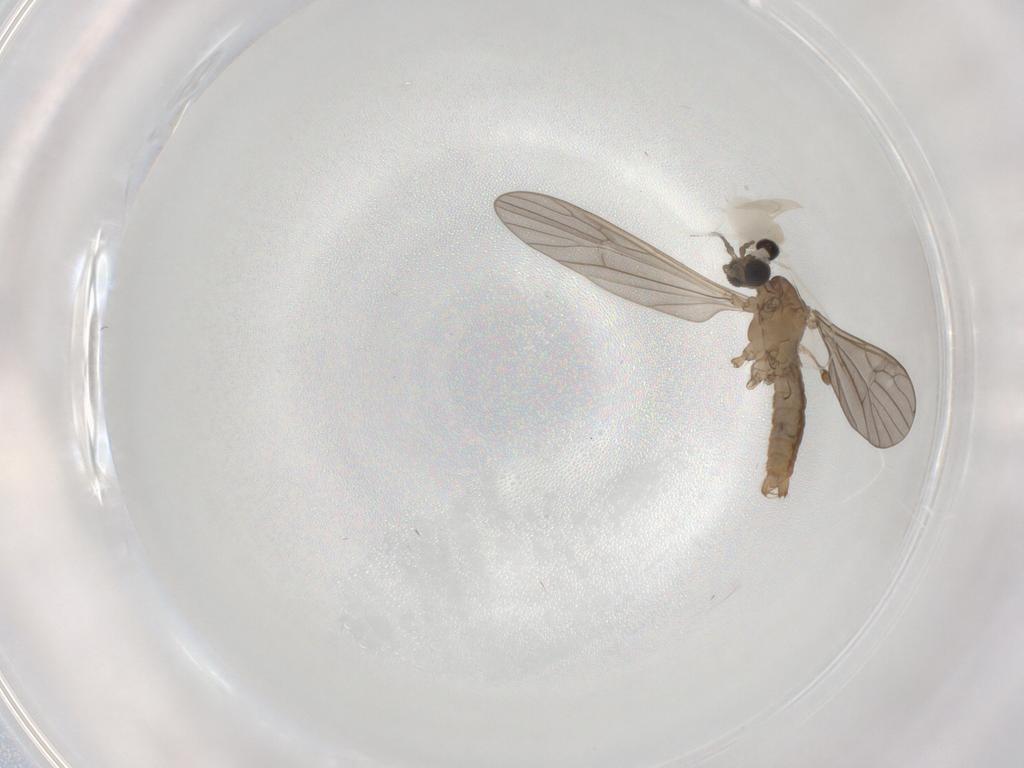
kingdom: Animalia
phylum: Arthropoda
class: Insecta
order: Diptera
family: Limoniidae
